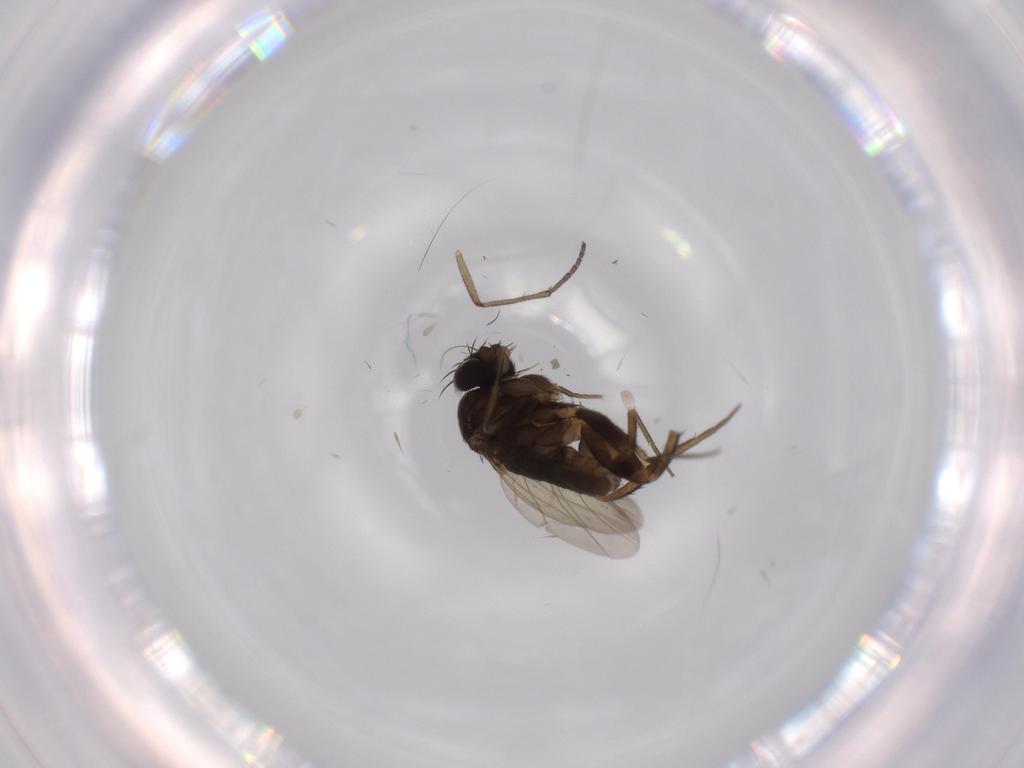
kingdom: Animalia
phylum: Arthropoda
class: Insecta
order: Diptera
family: Phoridae
